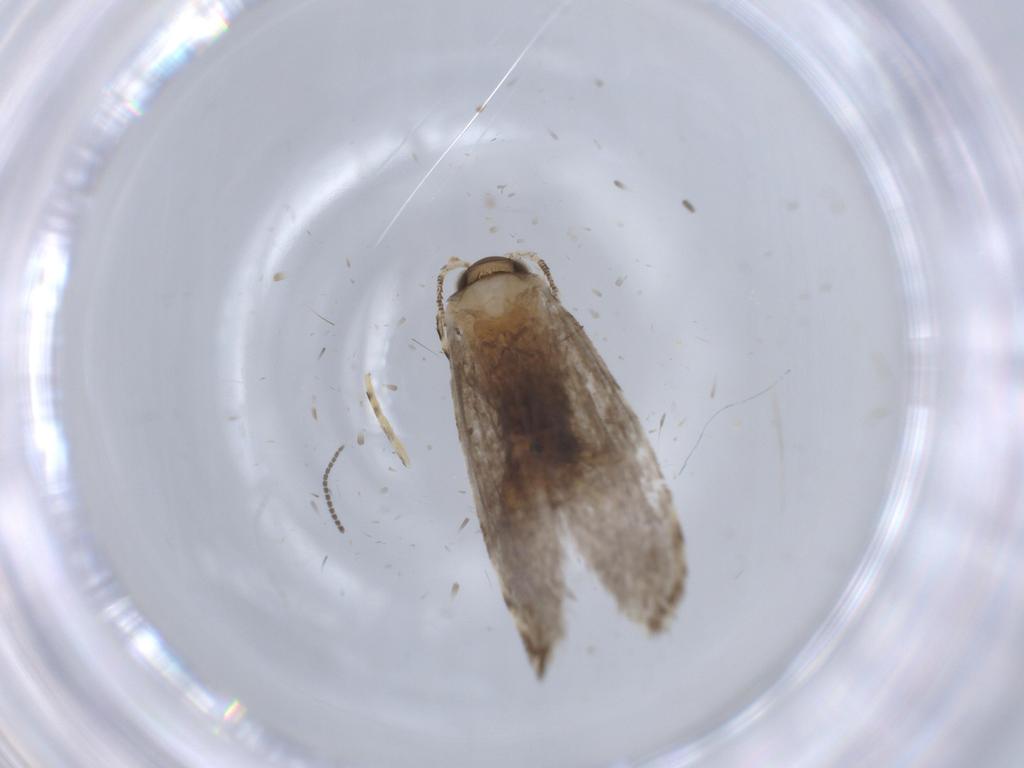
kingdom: Animalia
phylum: Arthropoda
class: Insecta
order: Lepidoptera
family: Tineidae
